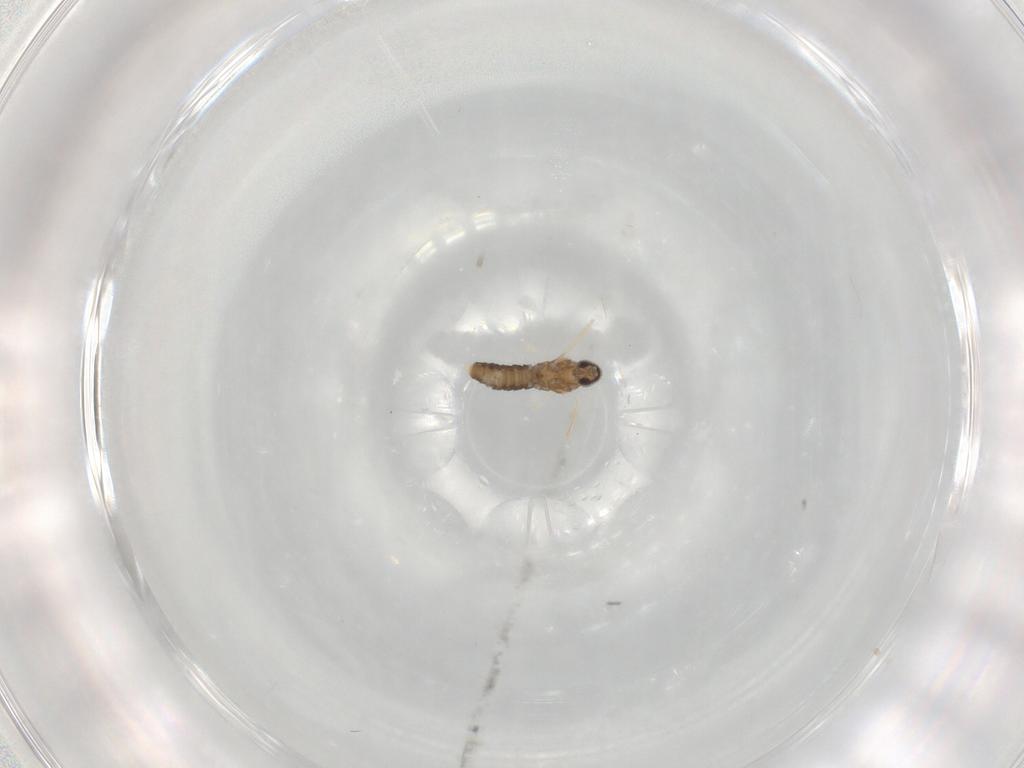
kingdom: Animalia
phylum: Arthropoda
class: Insecta
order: Diptera
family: Cecidomyiidae
